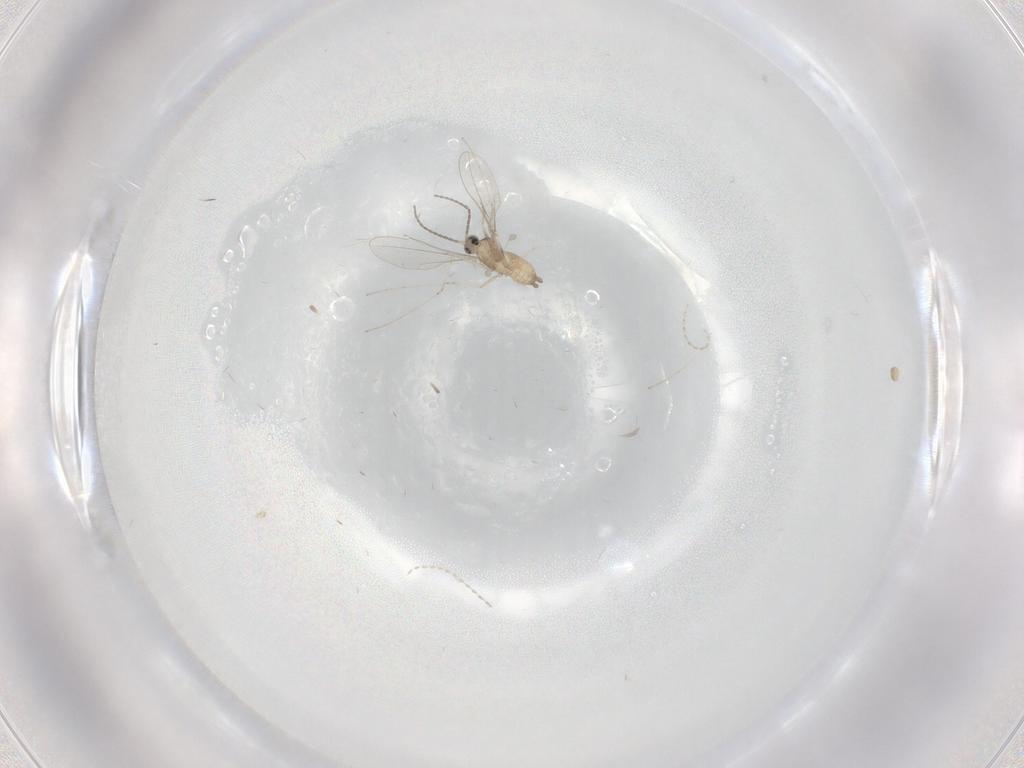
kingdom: Animalia
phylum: Arthropoda
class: Insecta
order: Diptera
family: Cecidomyiidae
